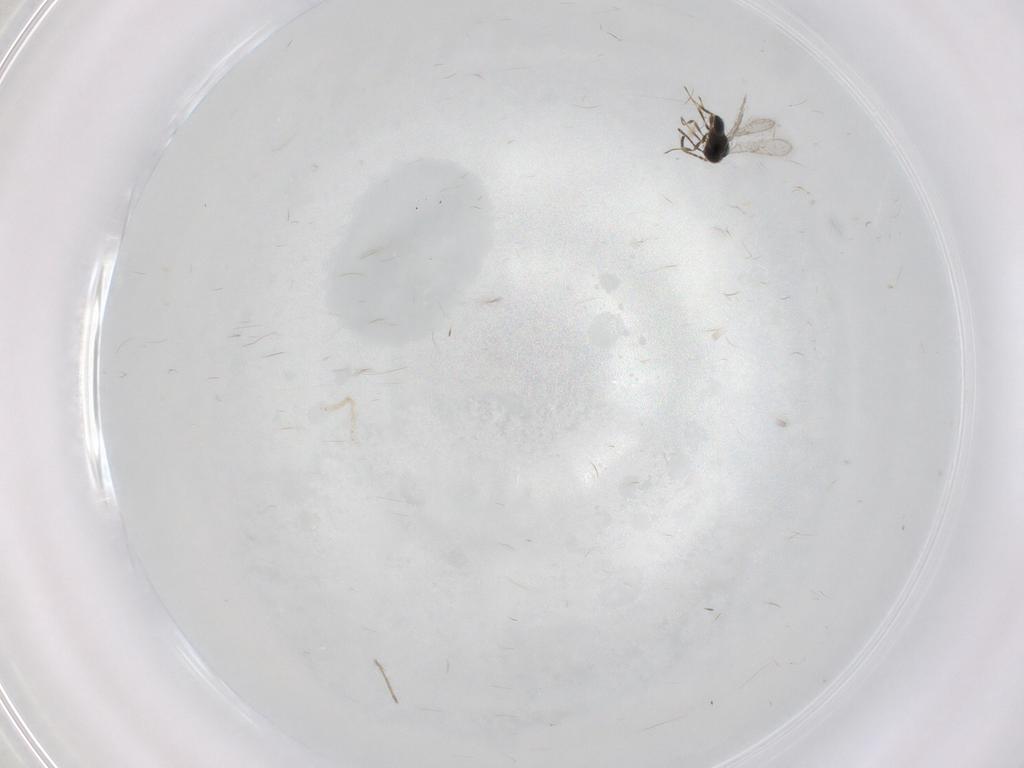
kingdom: Animalia
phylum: Arthropoda
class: Insecta
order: Hymenoptera
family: Scelionidae
